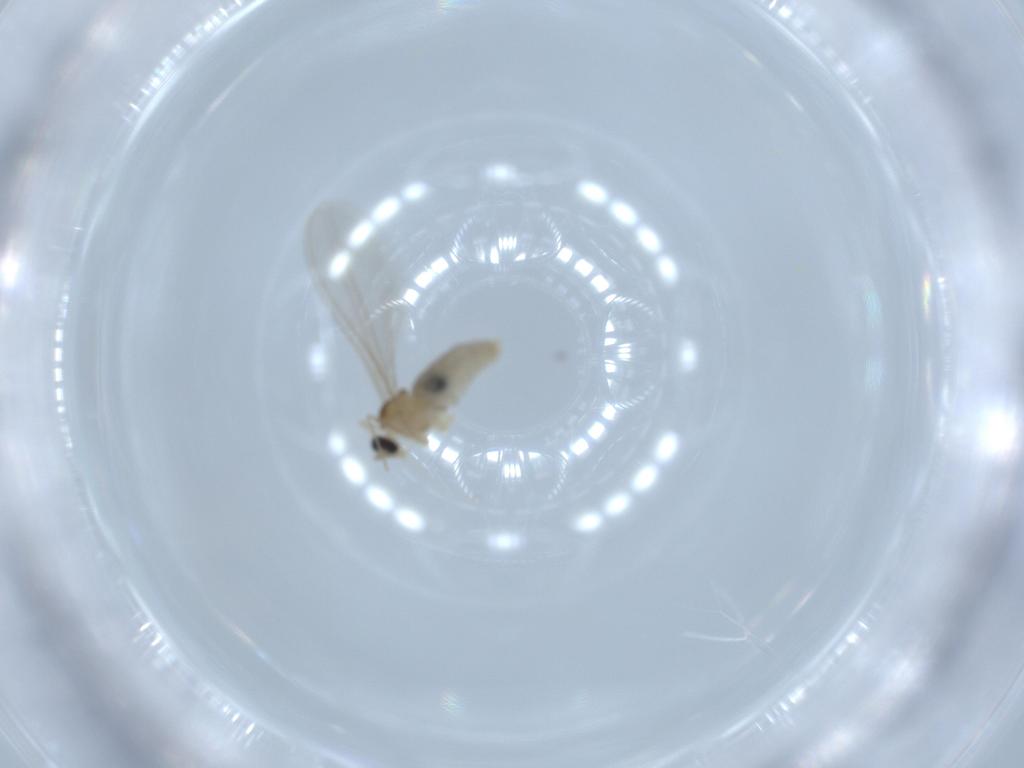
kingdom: Animalia
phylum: Arthropoda
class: Insecta
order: Diptera
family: Cecidomyiidae
